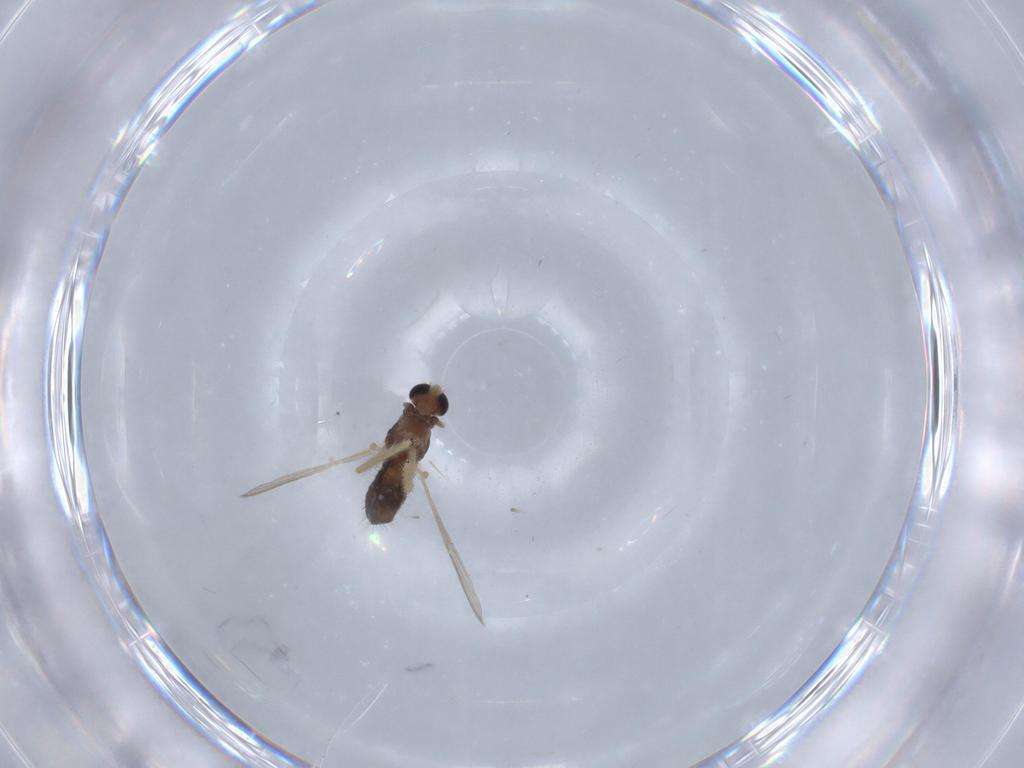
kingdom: Animalia
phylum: Arthropoda
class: Insecta
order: Diptera
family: Chironomidae
